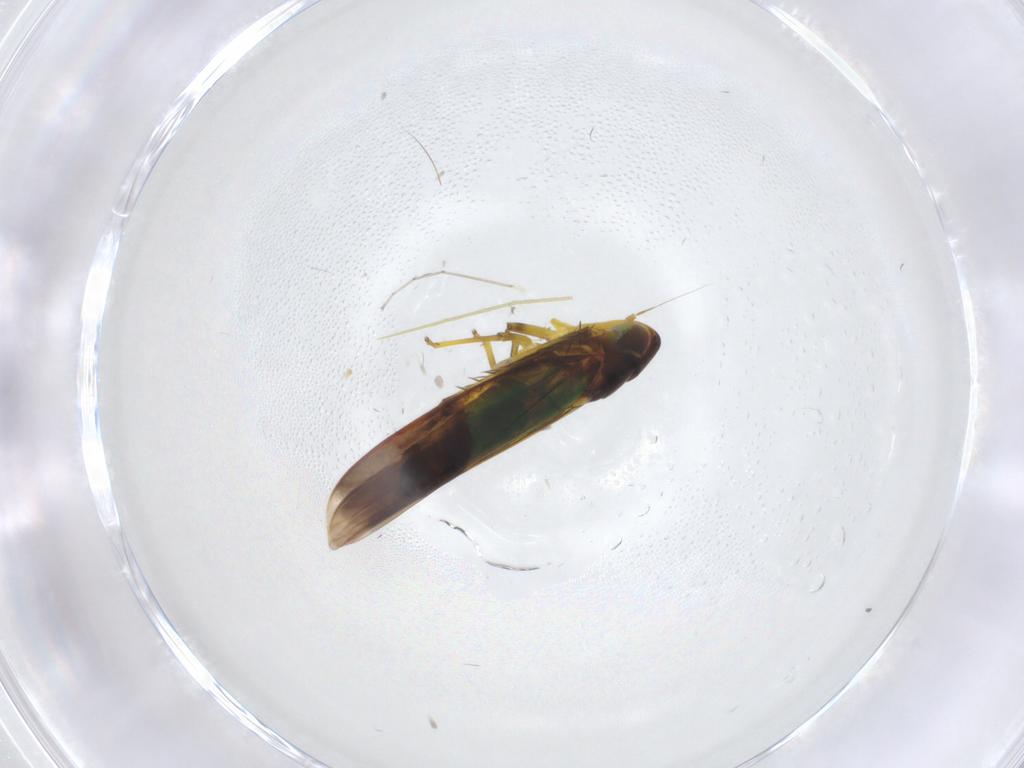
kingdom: Animalia
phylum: Arthropoda
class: Insecta
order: Hemiptera
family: Cicadellidae
